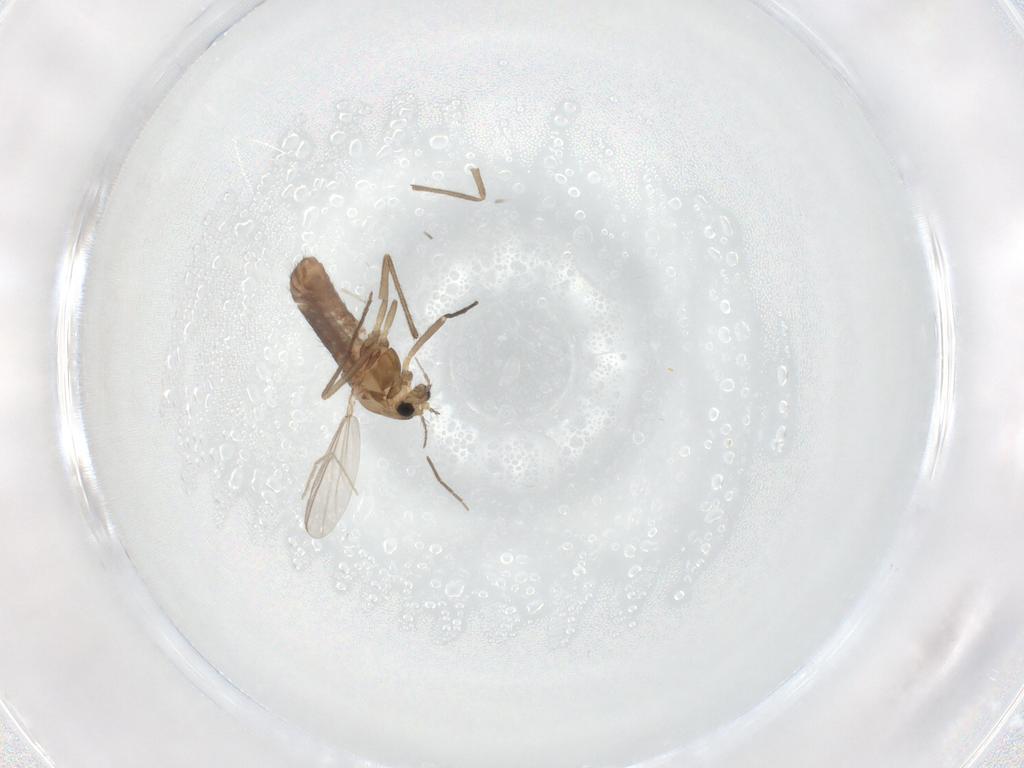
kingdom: Animalia
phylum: Arthropoda
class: Insecta
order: Diptera
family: Chironomidae
